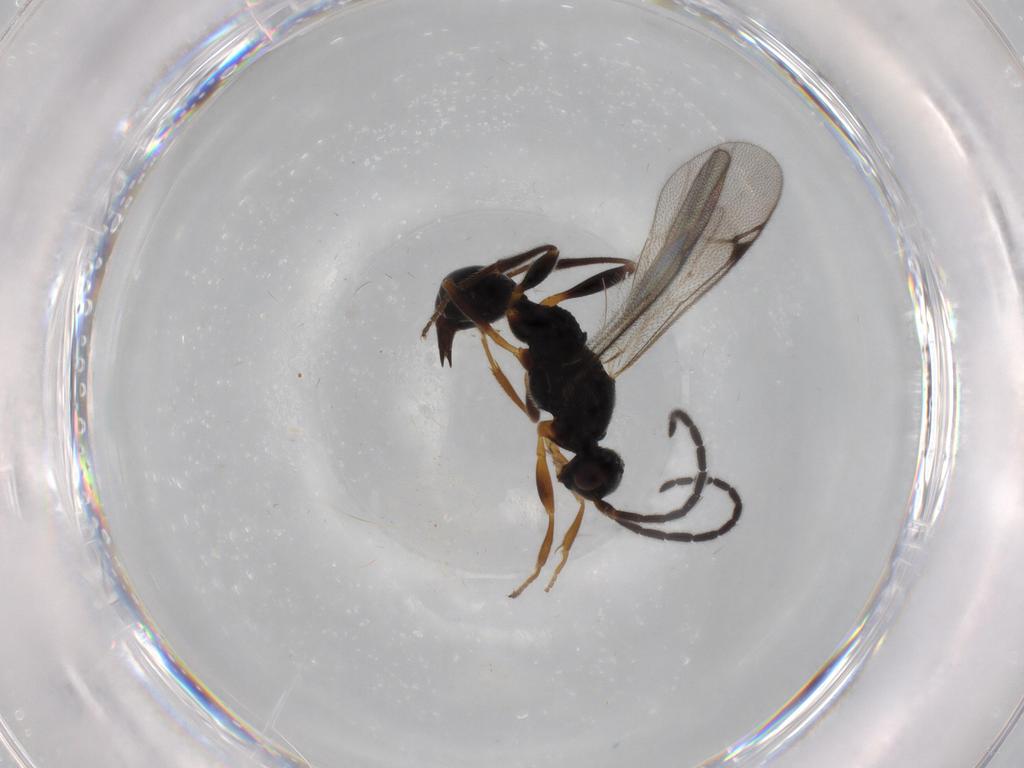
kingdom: Animalia
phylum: Arthropoda
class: Insecta
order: Hymenoptera
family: Proctotrupidae
